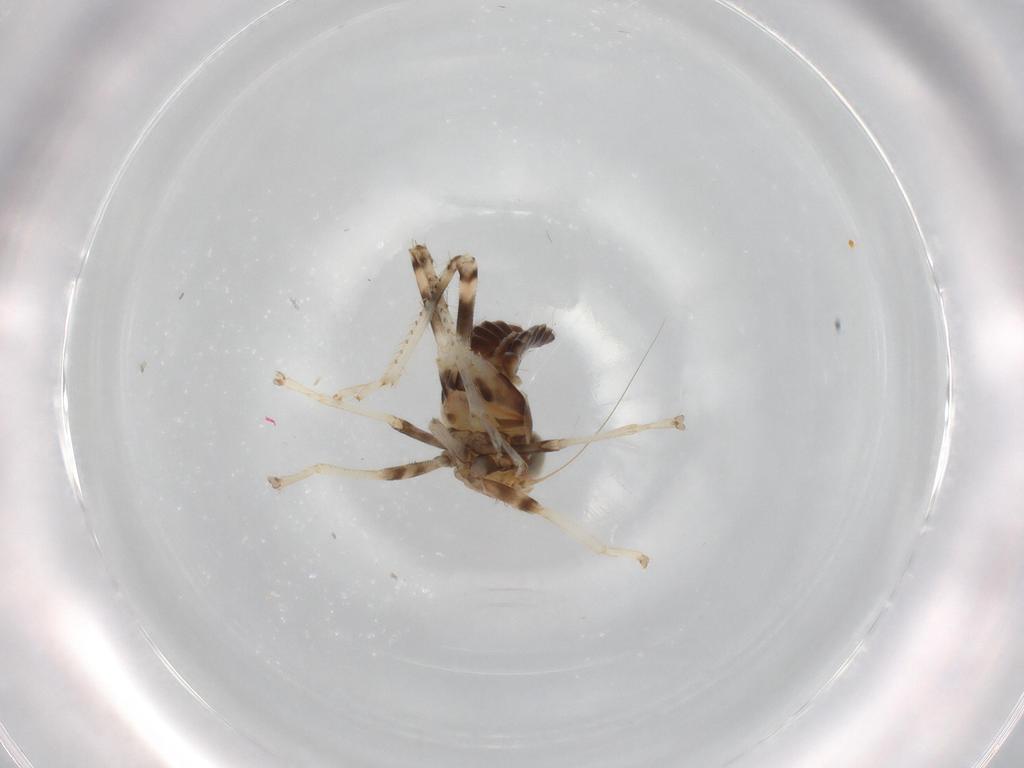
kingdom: Animalia
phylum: Arthropoda
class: Insecta
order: Hemiptera
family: Cicadellidae
